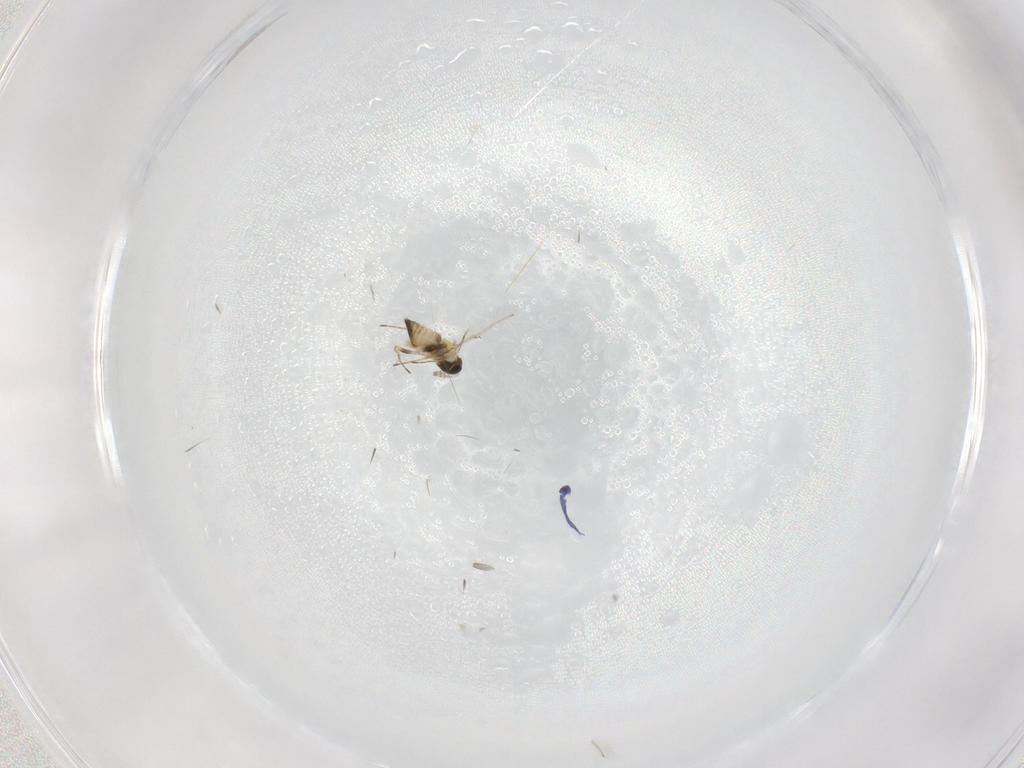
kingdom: Animalia
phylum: Arthropoda
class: Insecta
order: Hymenoptera
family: Trichogrammatidae
